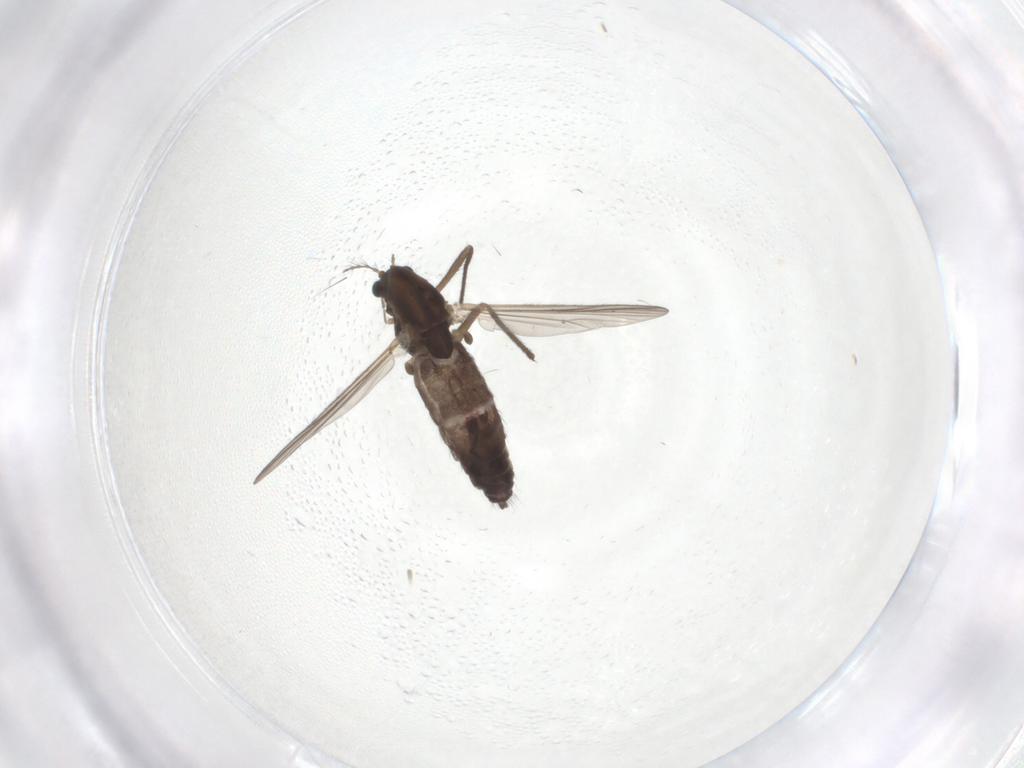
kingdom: Animalia
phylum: Arthropoda
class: Insecta
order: Diptera
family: Chironomidae
